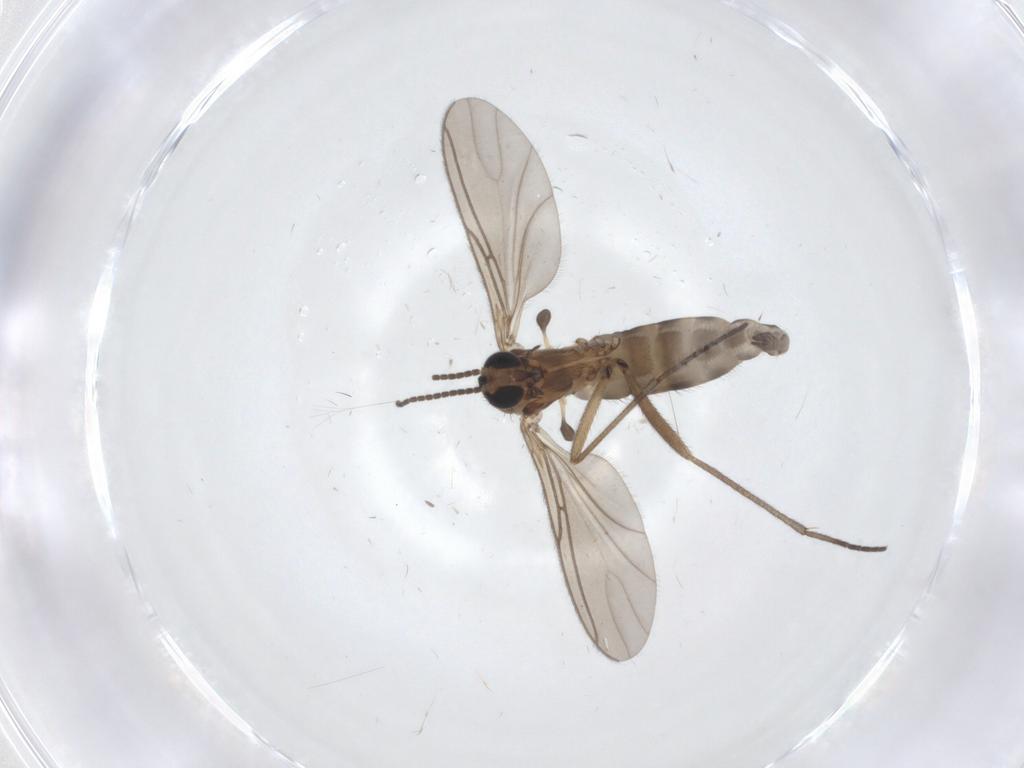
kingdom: Animalia
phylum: Arthropoda
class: Insecta
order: Diptera
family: Sciaridae
